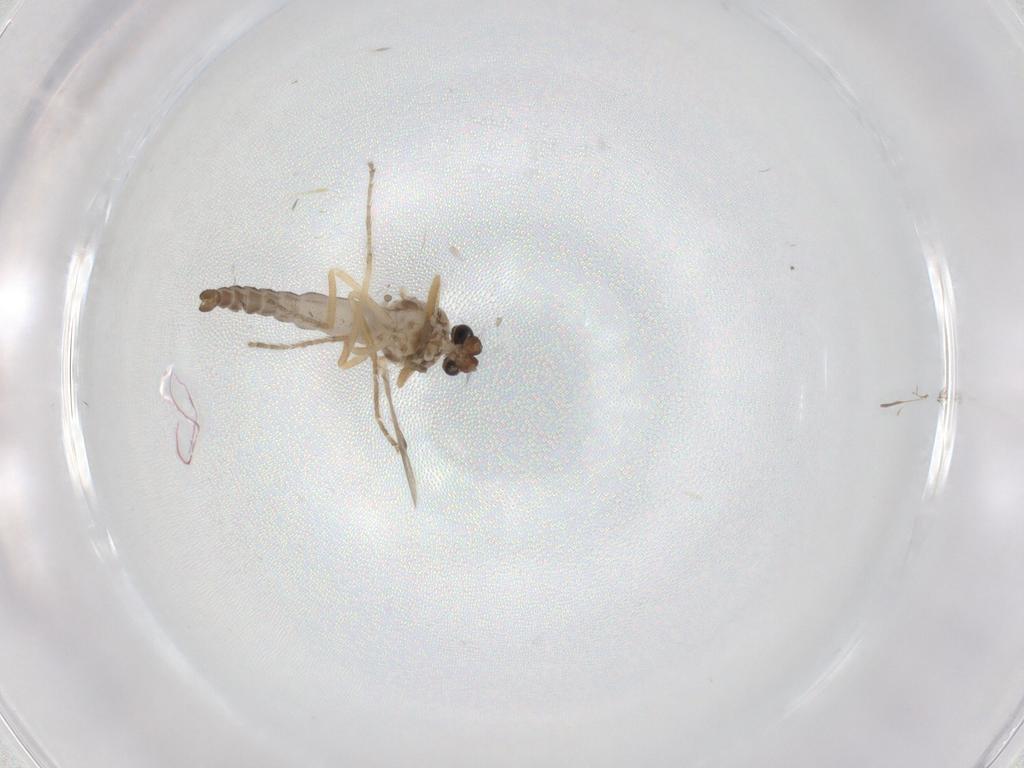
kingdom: Animalia
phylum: Arthropoda
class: Insecta
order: Diptera
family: Ceratopogonidae
